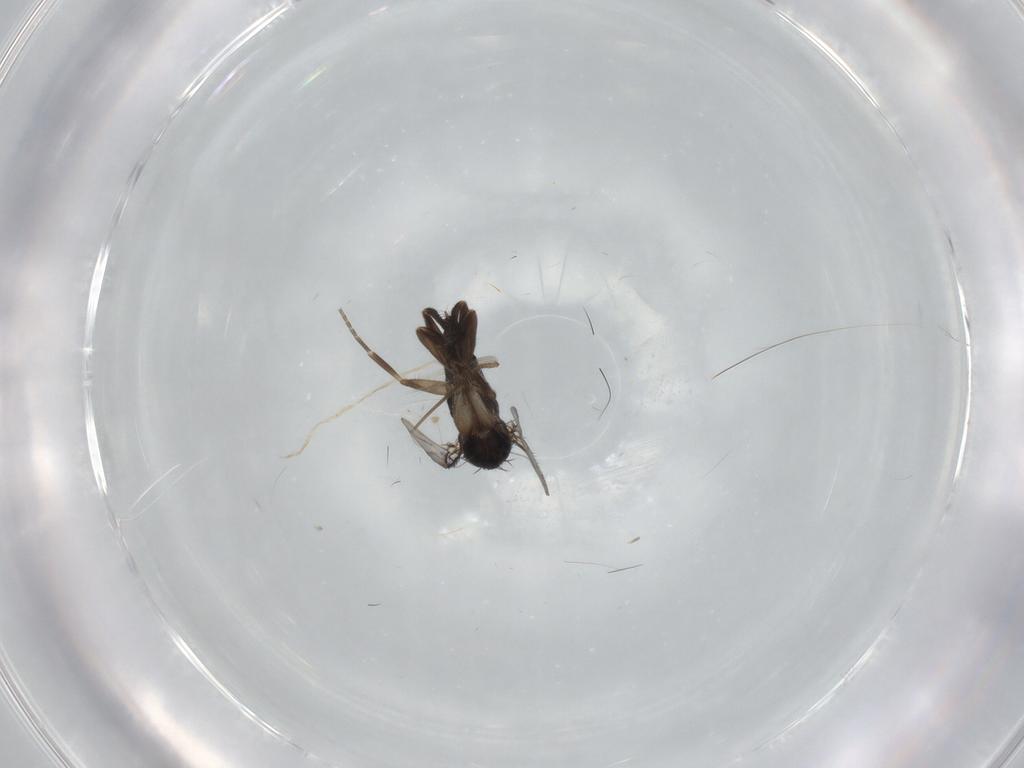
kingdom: Animalia
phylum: Arthropoda
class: Insecta
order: Diptera
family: Phoridae
